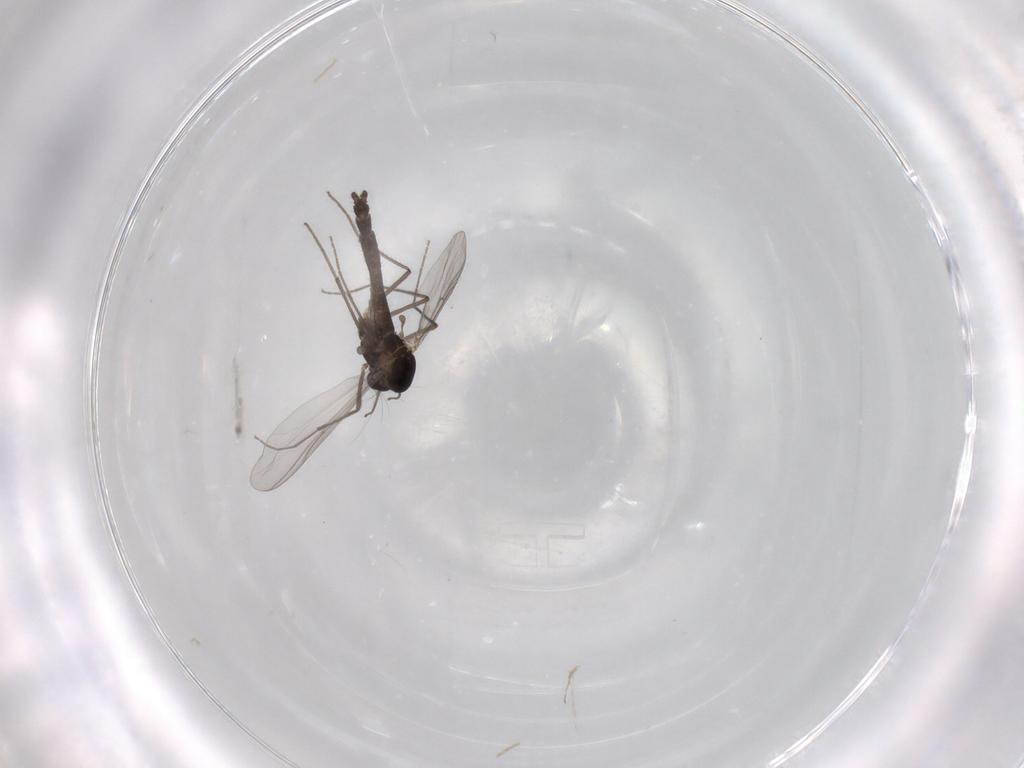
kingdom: Animalia
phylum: Arthropoda
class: Insecta
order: Diptera
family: Chironomidae
